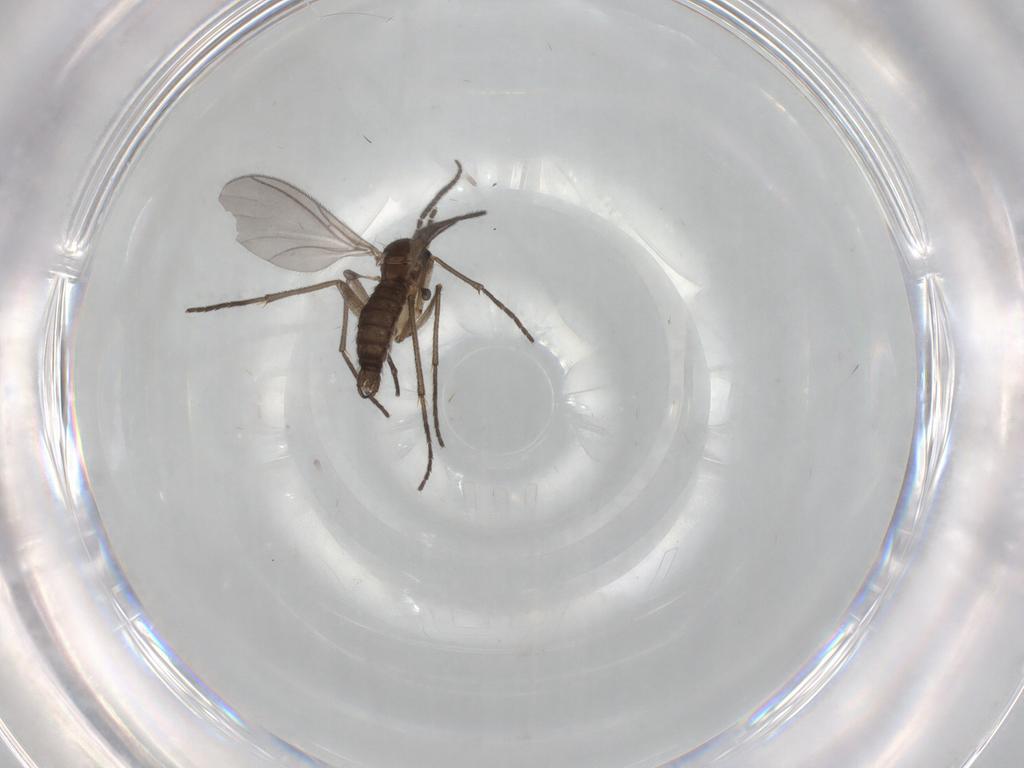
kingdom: Animalia
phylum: Arthropoda
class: Insecta
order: Diptera
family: Sciaridae
